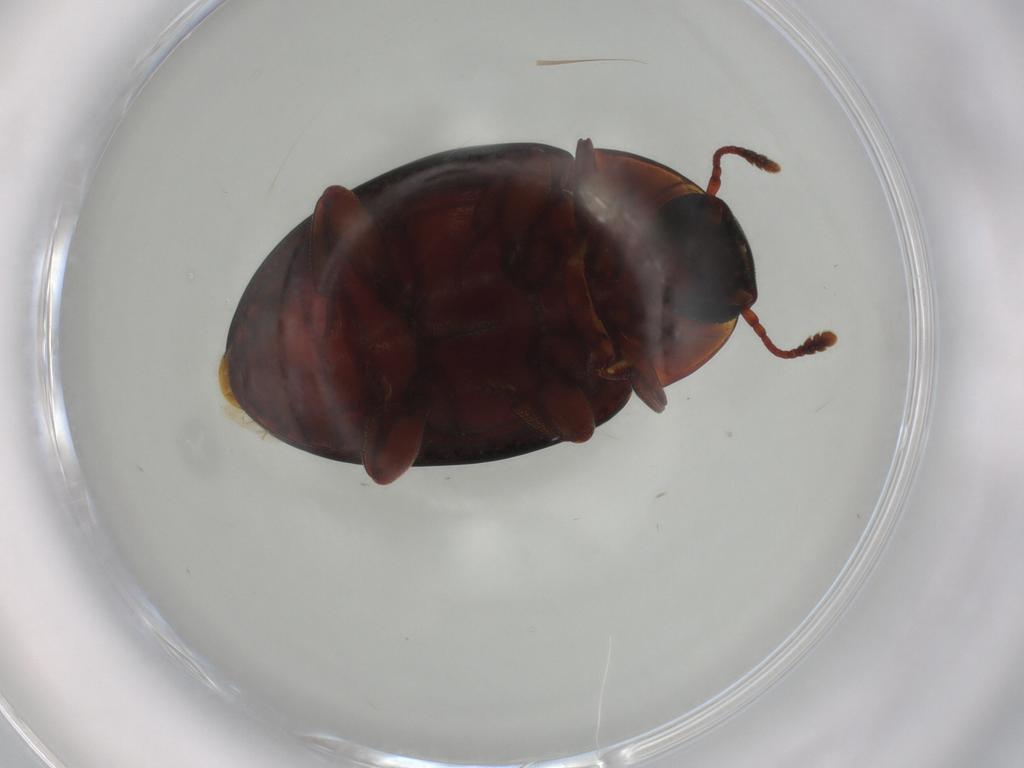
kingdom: Animalia
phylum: Arthropoda
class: Insecta
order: Coleoptera
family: Zopheridae
